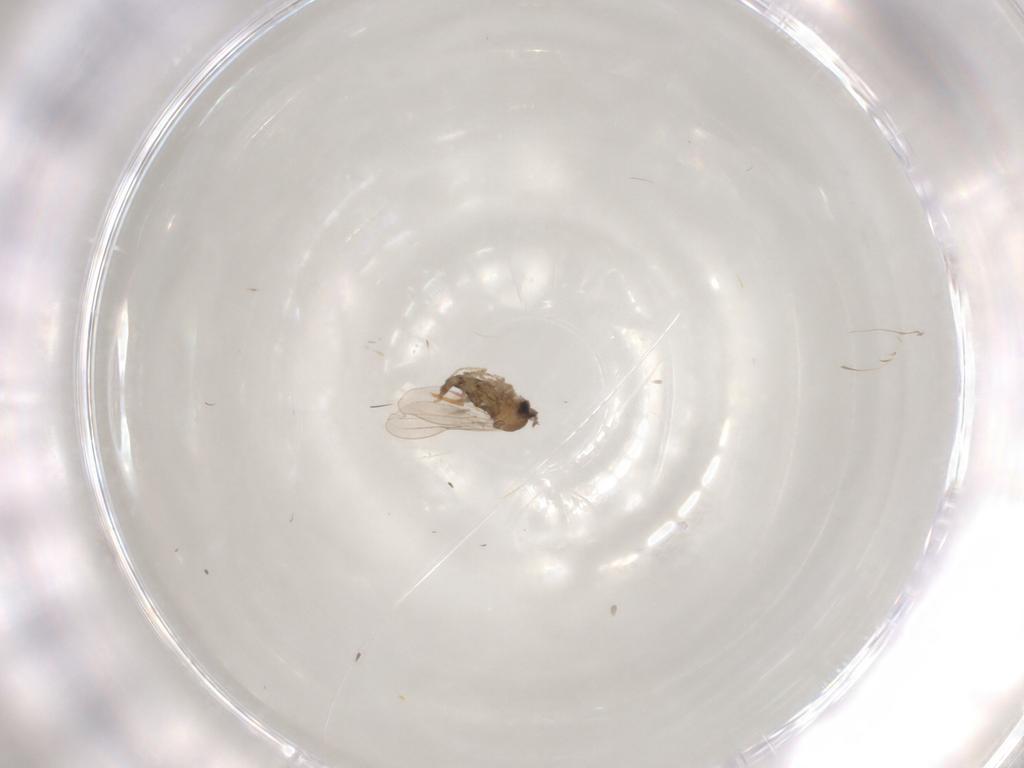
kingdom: Animalia
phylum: Arthropoda
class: Insecta
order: Diptera
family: Cecidomyiidae
